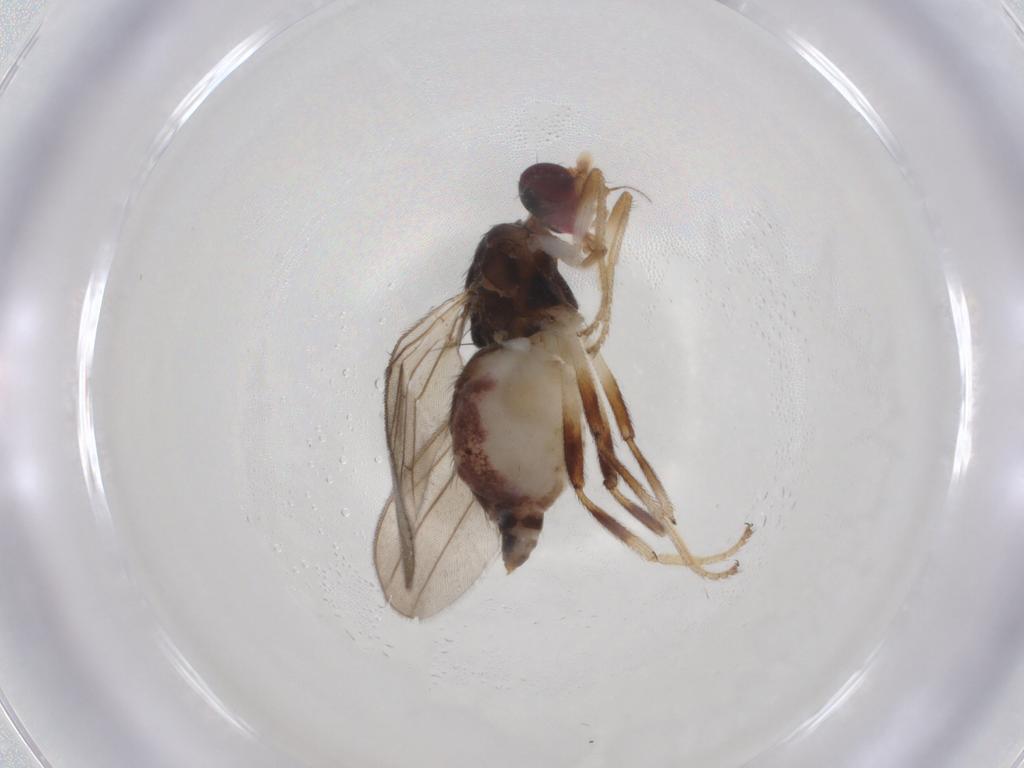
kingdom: Animalia
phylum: Arthropoda
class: Insecta
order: Diptera
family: Chloropidae
